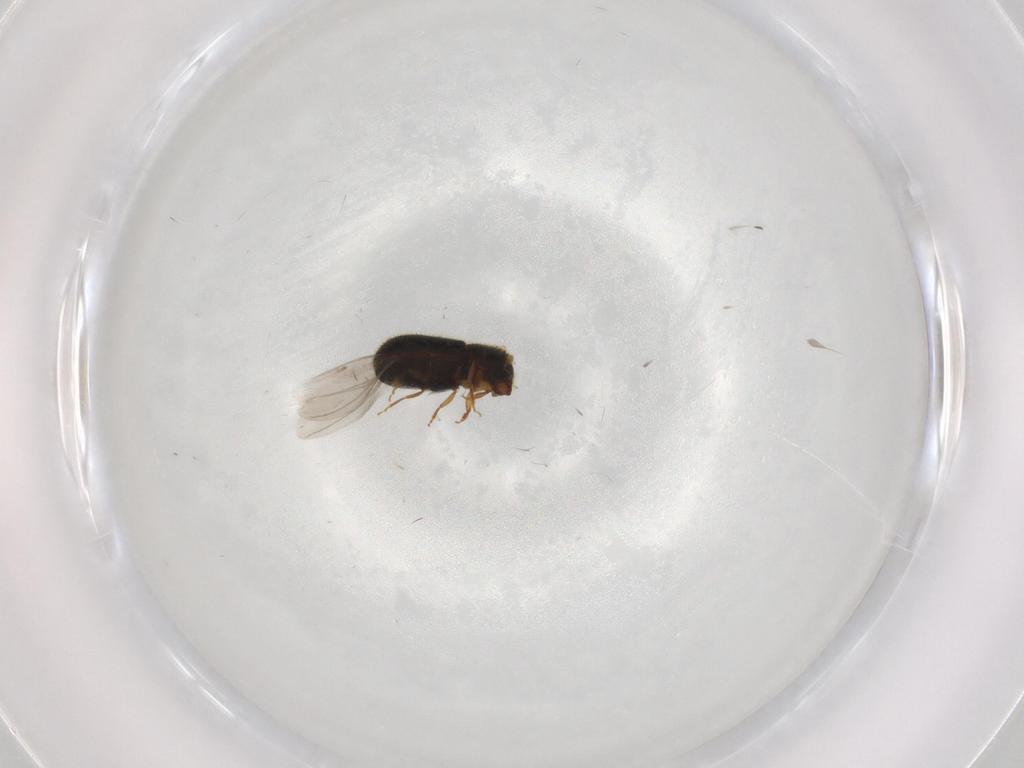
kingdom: Animalia
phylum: Arthropoda
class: Insecta
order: Coleoptera
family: Curculionidae
